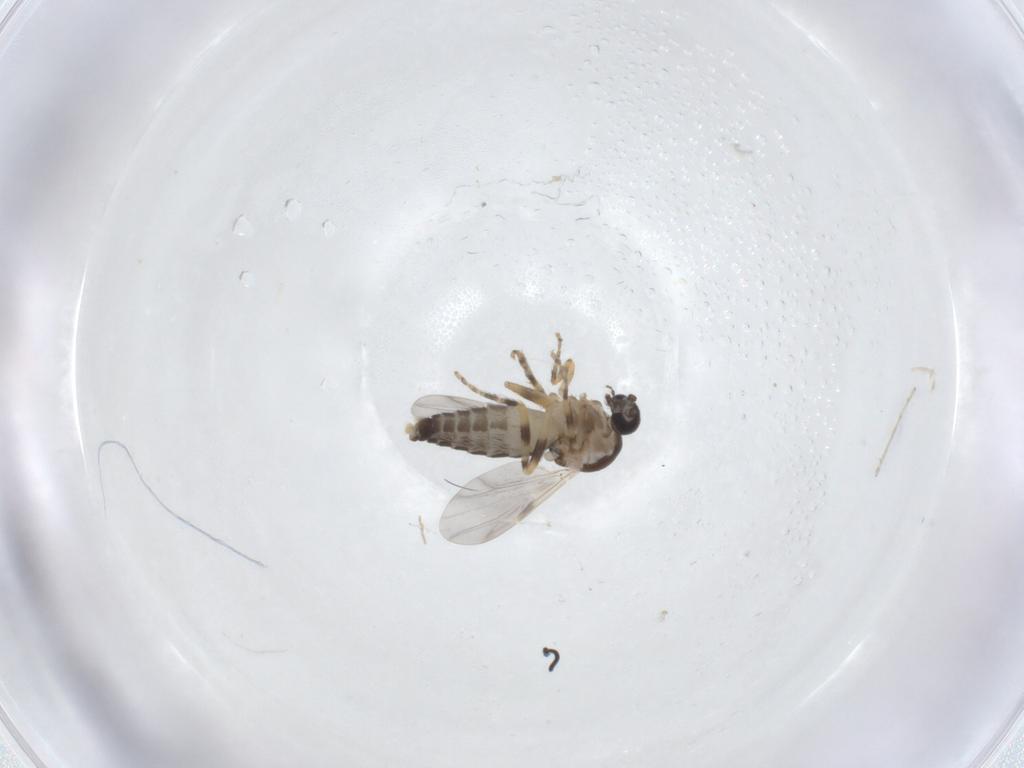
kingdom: Animalia
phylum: Arthropoda
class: Insecta
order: Diptera
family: Ceratopogonidae
